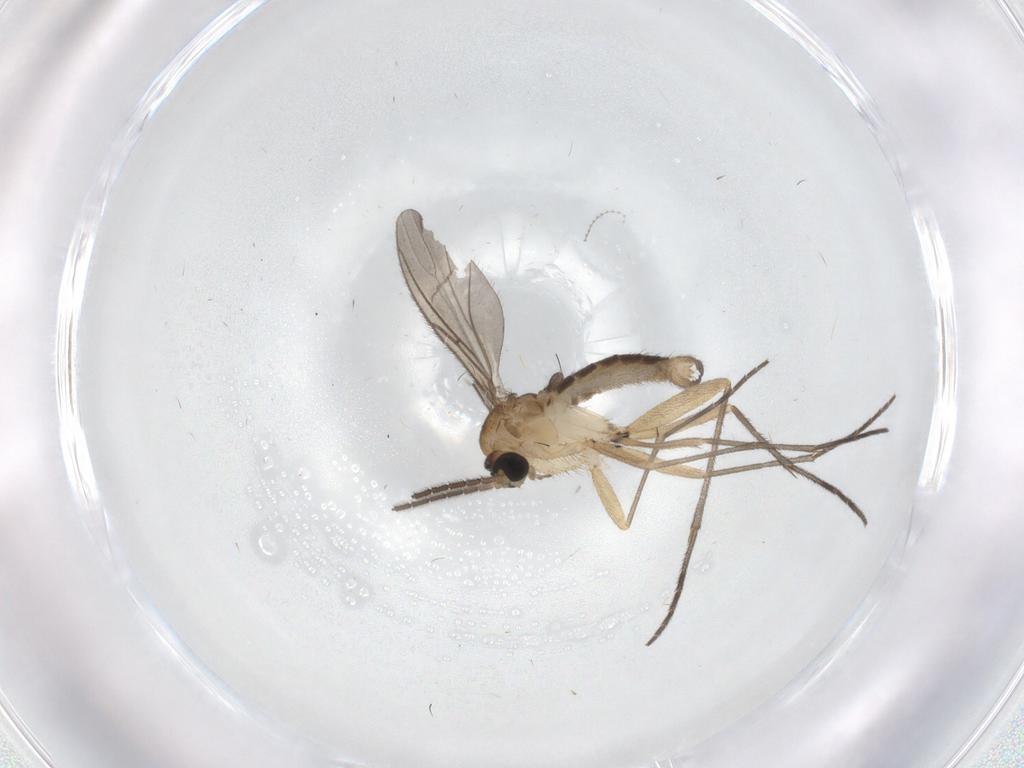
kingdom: Animalia
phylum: Arthropoda
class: Insecta
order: Diptera
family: Sciaridae
